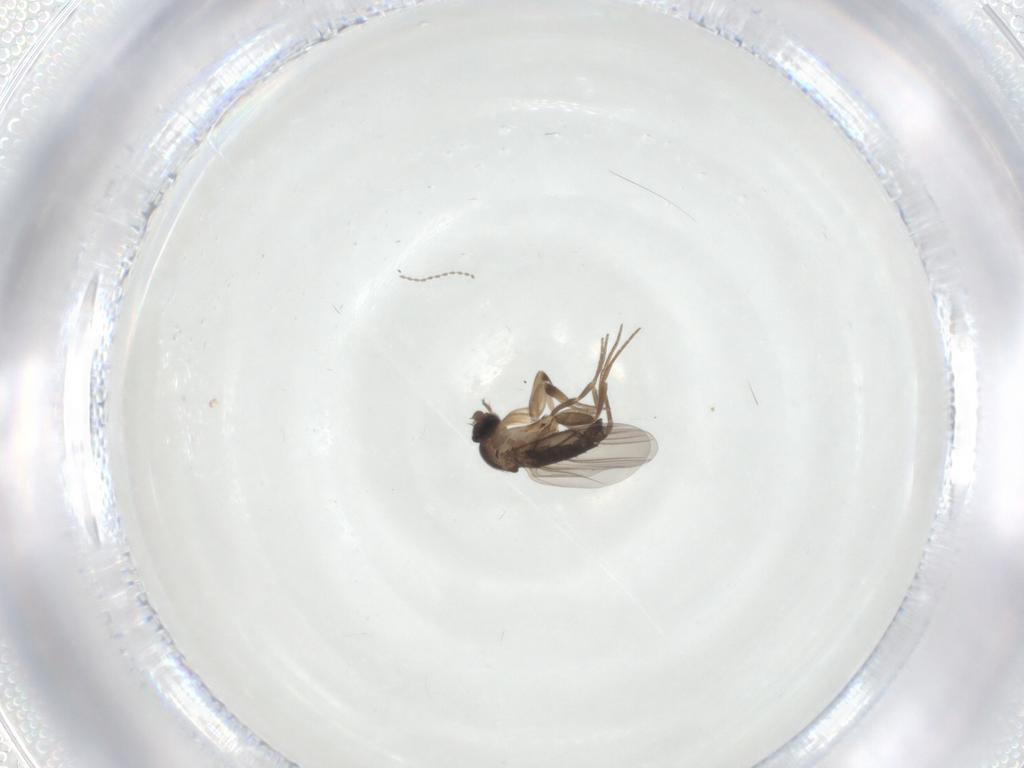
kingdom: Animalia
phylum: Arthropoda
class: Insecta
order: Diptera
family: Phoridae
